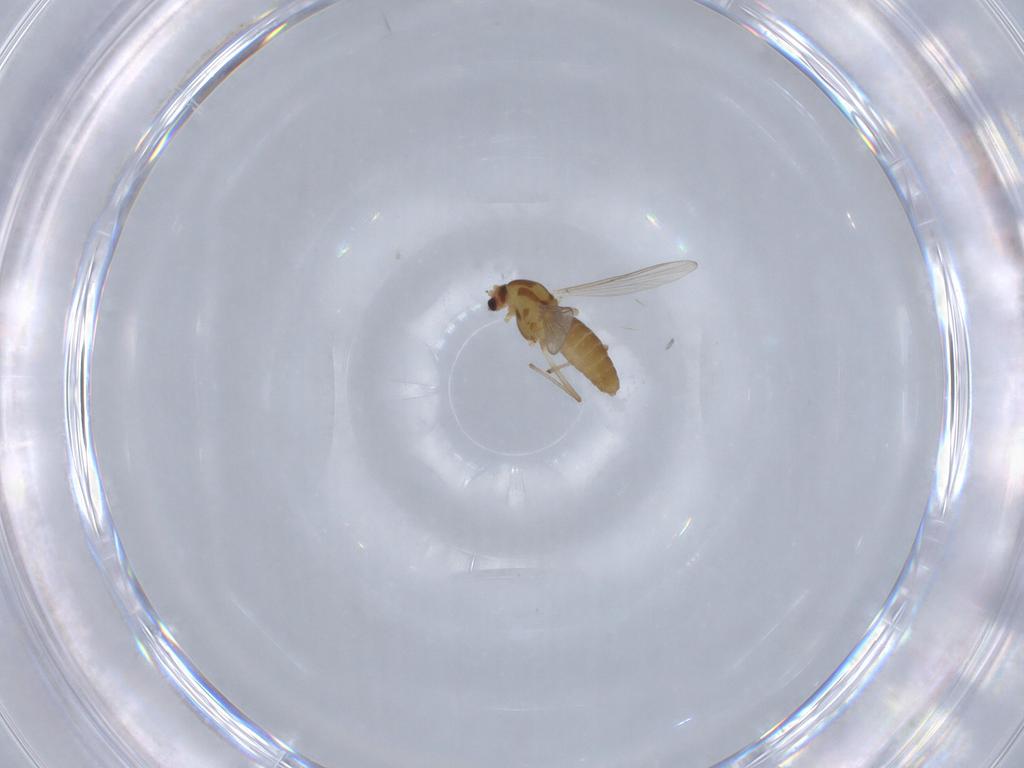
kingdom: Animalia
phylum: Arthropoda
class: Insecta
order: Diptera
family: Chironomidae
